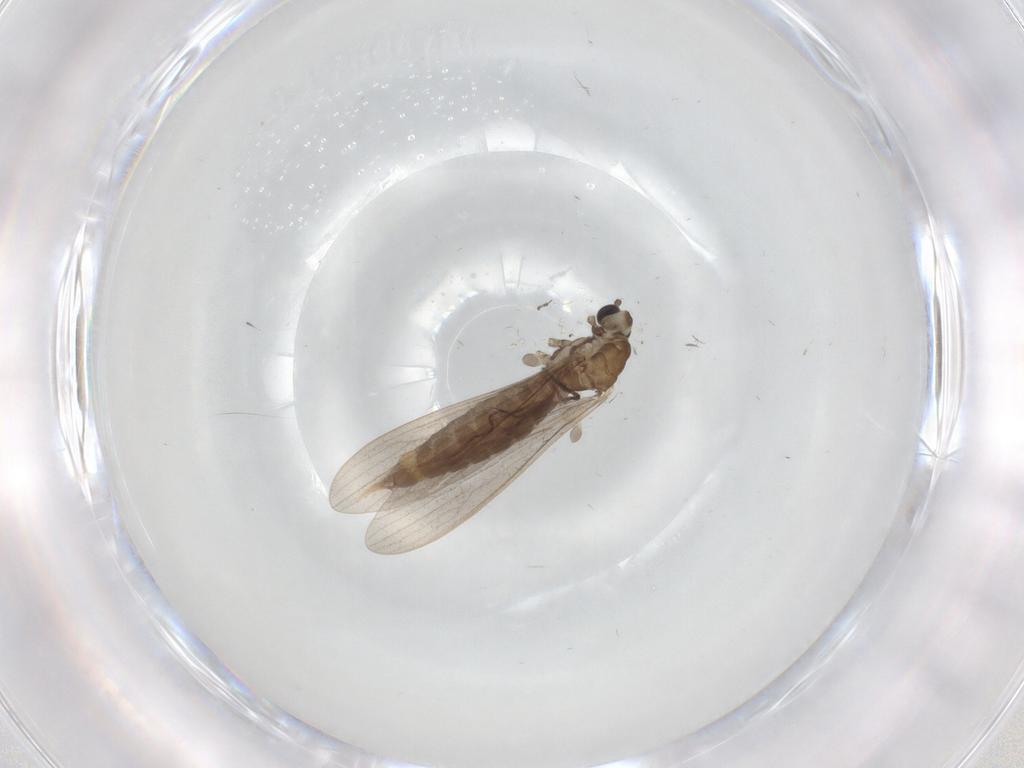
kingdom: Animalia
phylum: Arthropoda
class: Insecta
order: Diptera
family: Limoniidae
